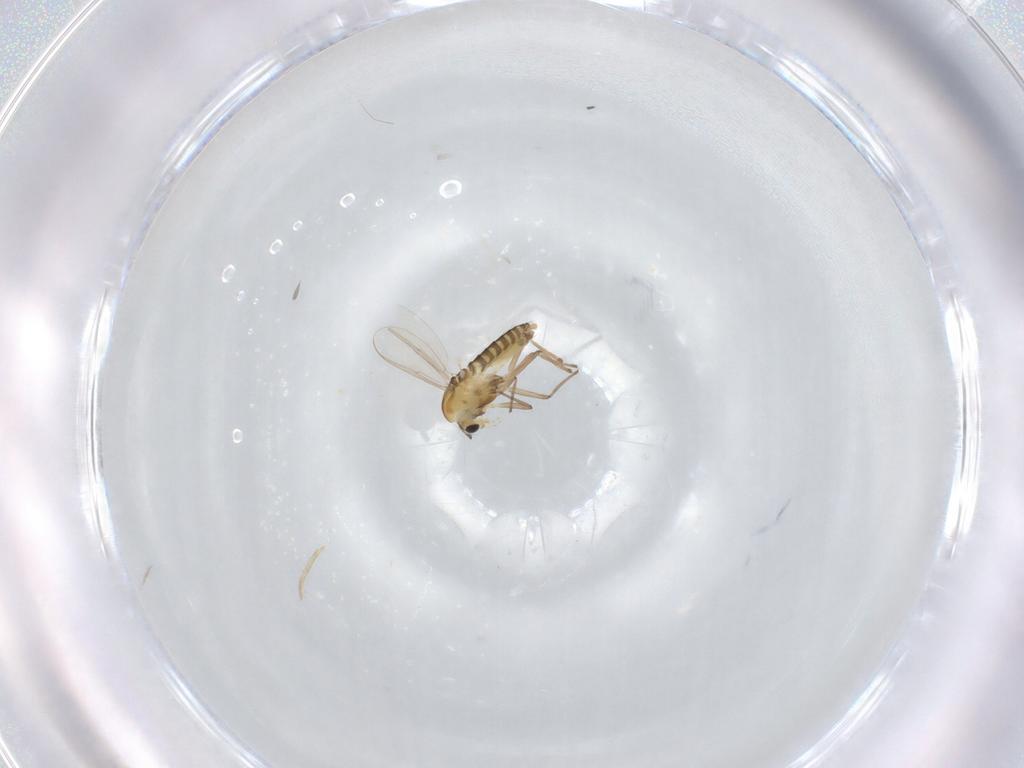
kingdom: Animalia
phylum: Arthropoda
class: Insecta
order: Diptera
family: Chironomidae
